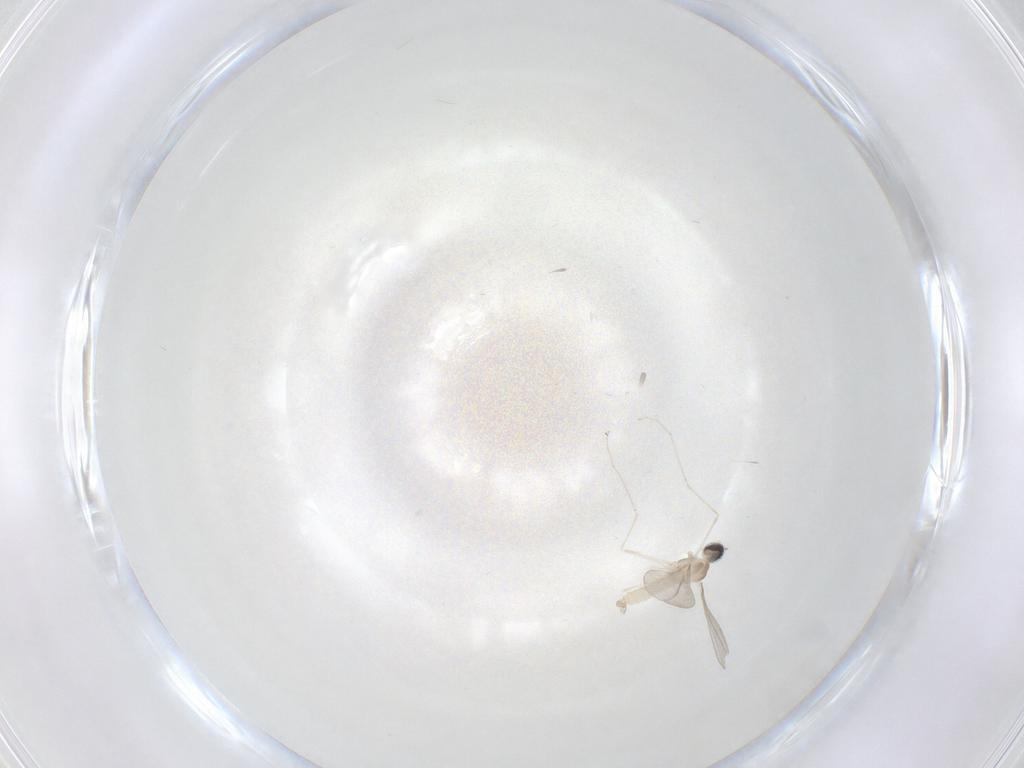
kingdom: Animalia
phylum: Arthropoda
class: Insecta
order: Diptera
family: Cecidomyiidae
